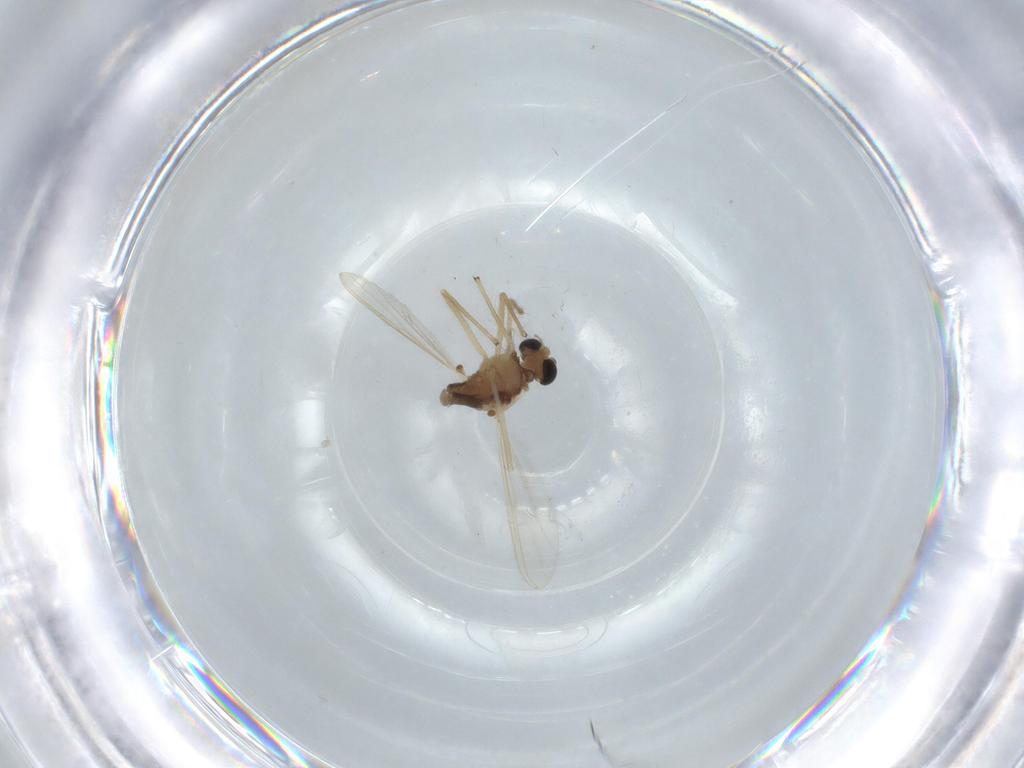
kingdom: Animalia
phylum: Arthropoda
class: Insecta
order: Diptera
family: Chironomidae
